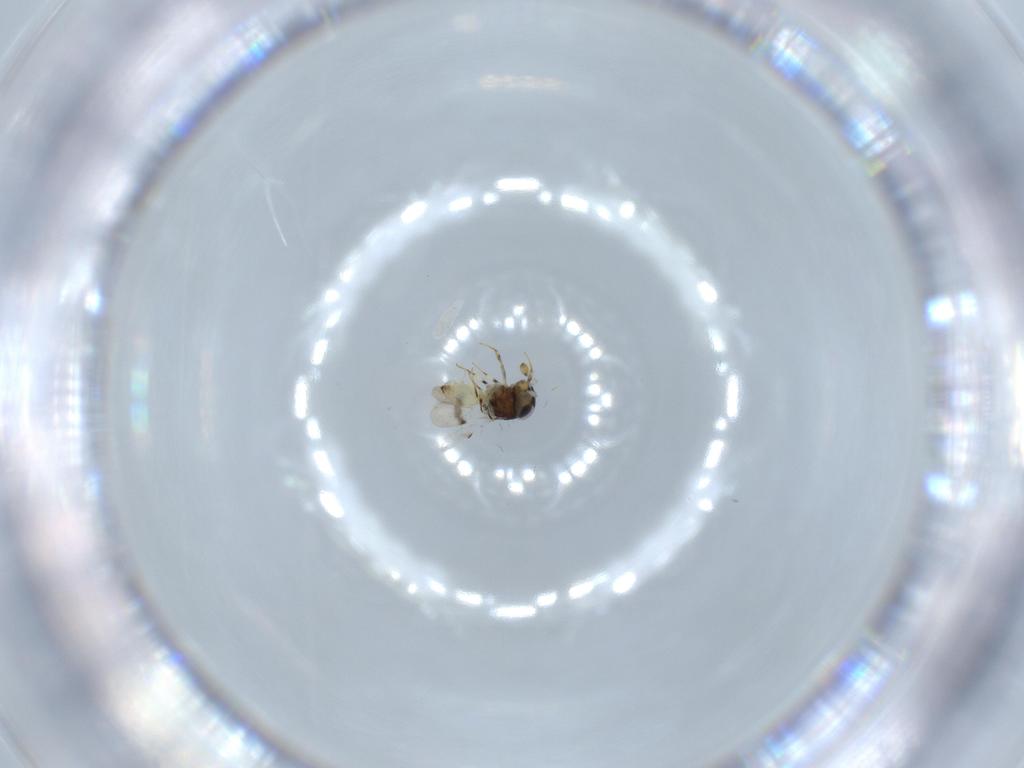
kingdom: Animalia
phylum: Arthropoda
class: Insecta
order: Hymenoptera
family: Scelionidae
